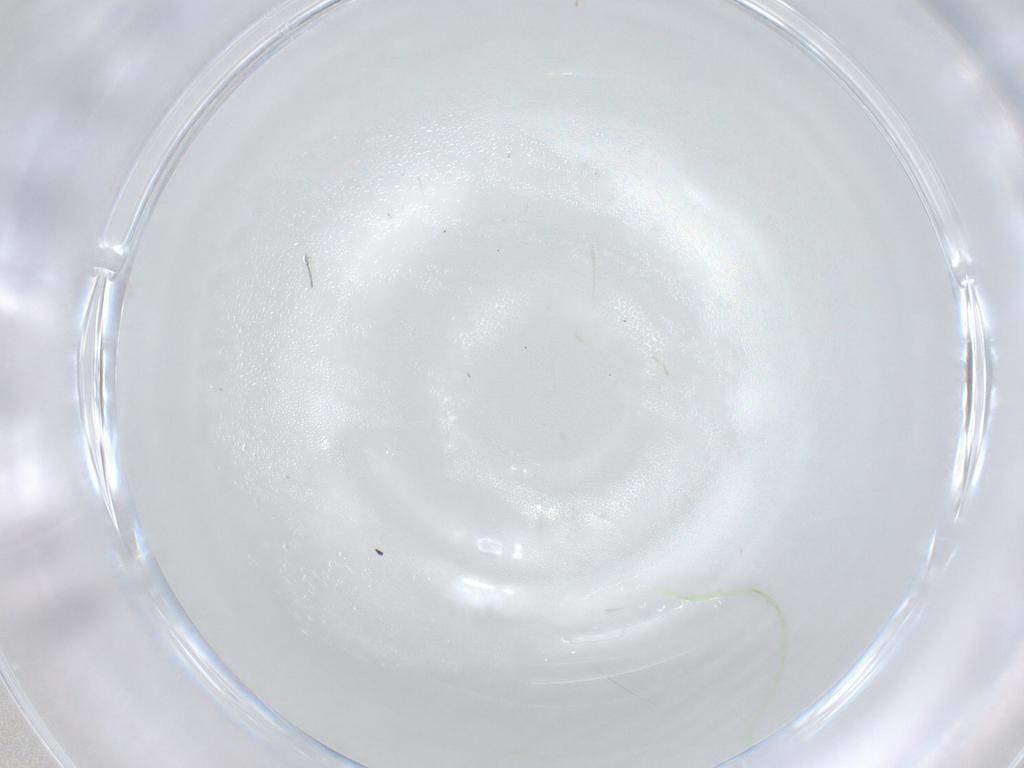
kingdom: Animalia
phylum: Arthropoda
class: Insecta
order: Hymenoptera
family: Trichogrammatidae
